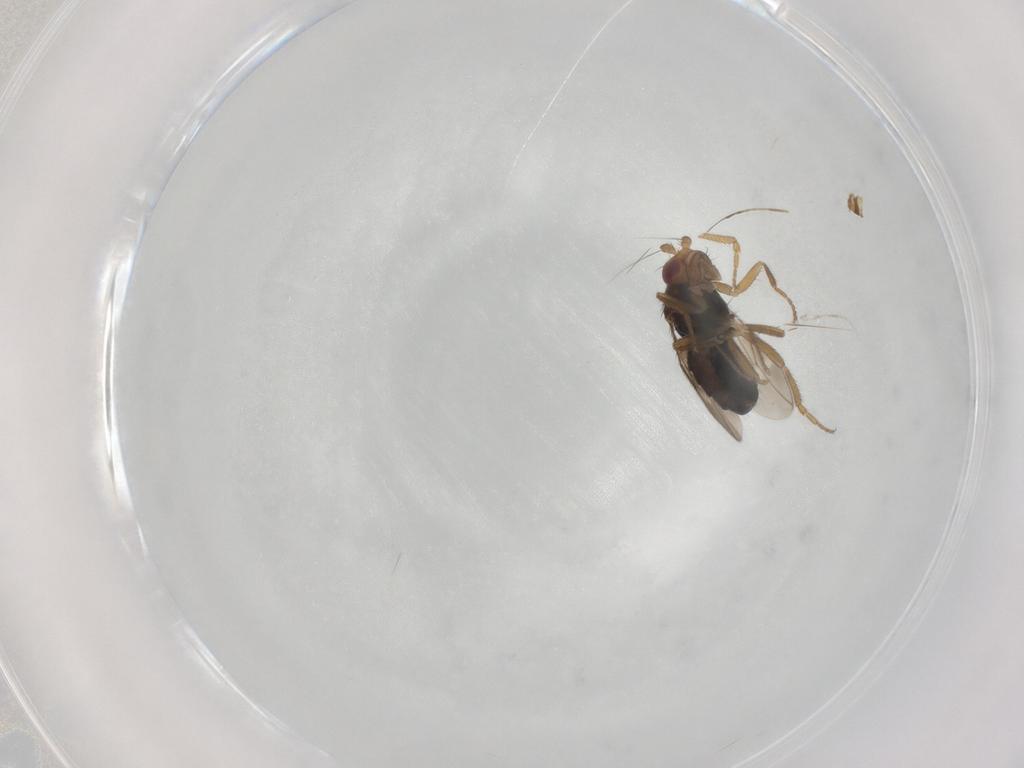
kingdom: Animalia
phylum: Arthropoda
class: Insecta
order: Diptera
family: Sphaeroceridae
